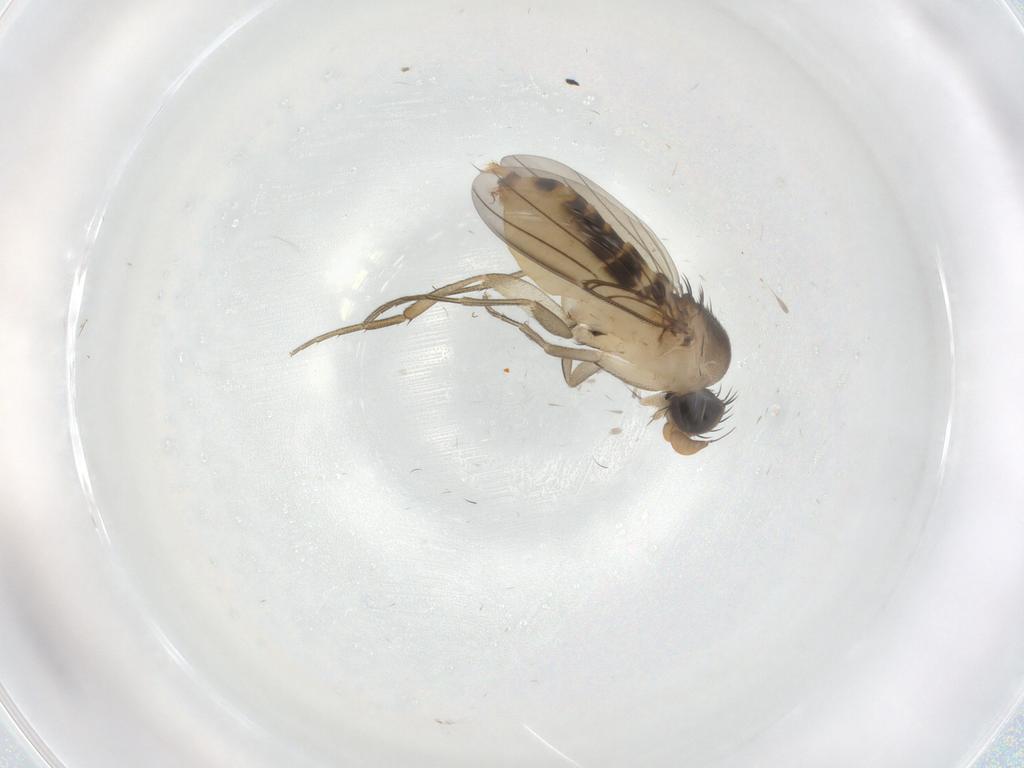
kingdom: Animalia
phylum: Arthropoda
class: Insecta
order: Diptera
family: Phoridae
